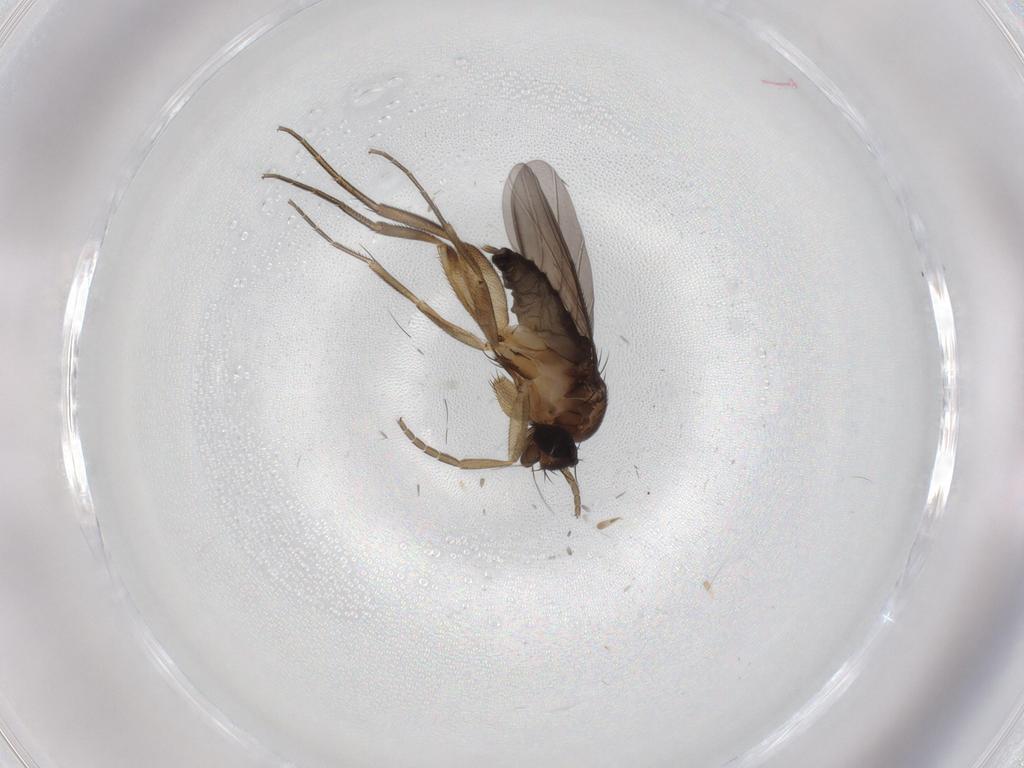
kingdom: Animalia
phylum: Arthropoda
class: Insecta
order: Diptera
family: Phoridae
